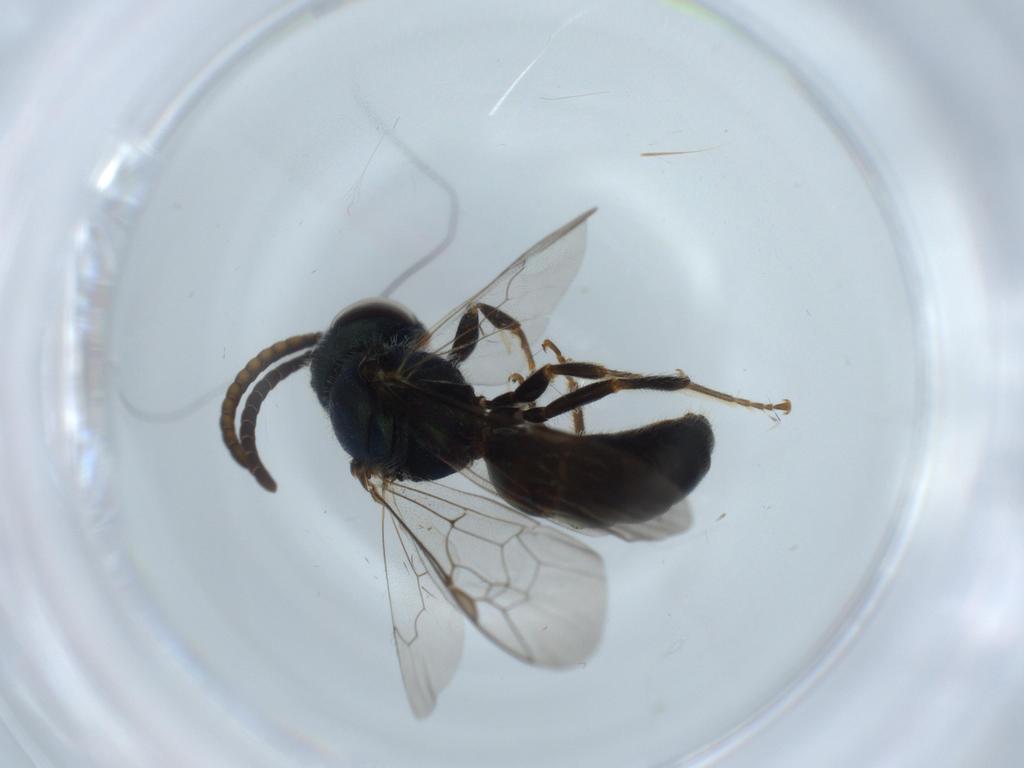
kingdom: Animalia
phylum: Arthropoda
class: Insecta
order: Hymenoptera
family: Halictidae
